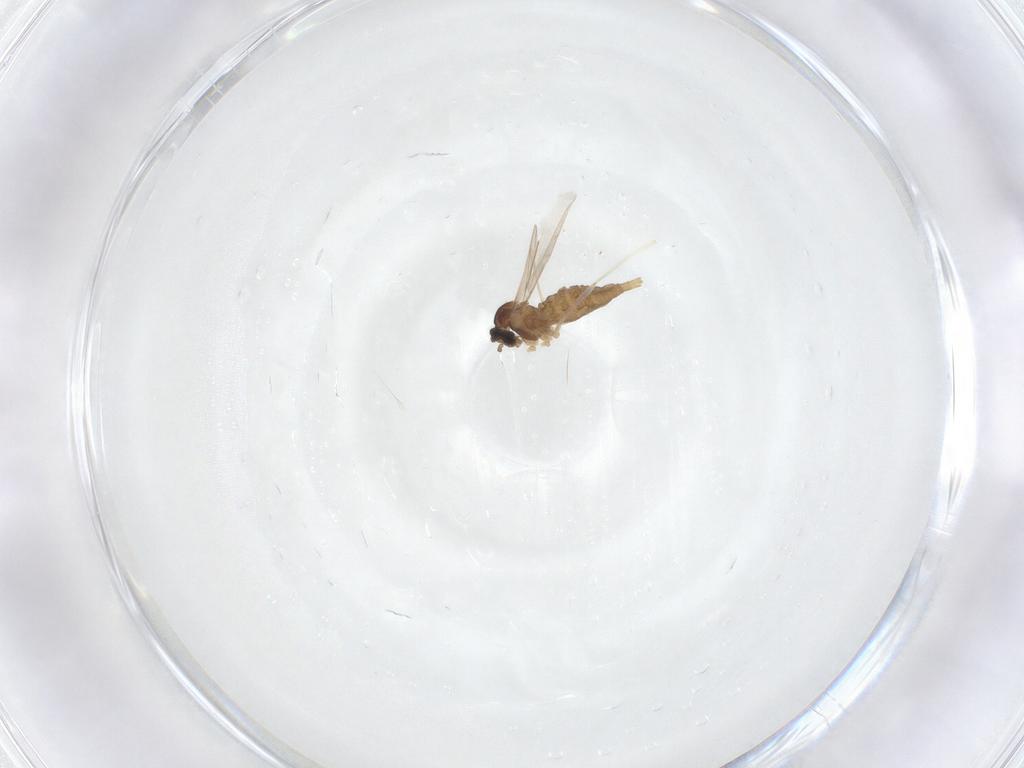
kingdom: Animalia
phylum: Arthropoda
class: Insecta
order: Diptera
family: Cecidomyiidae
